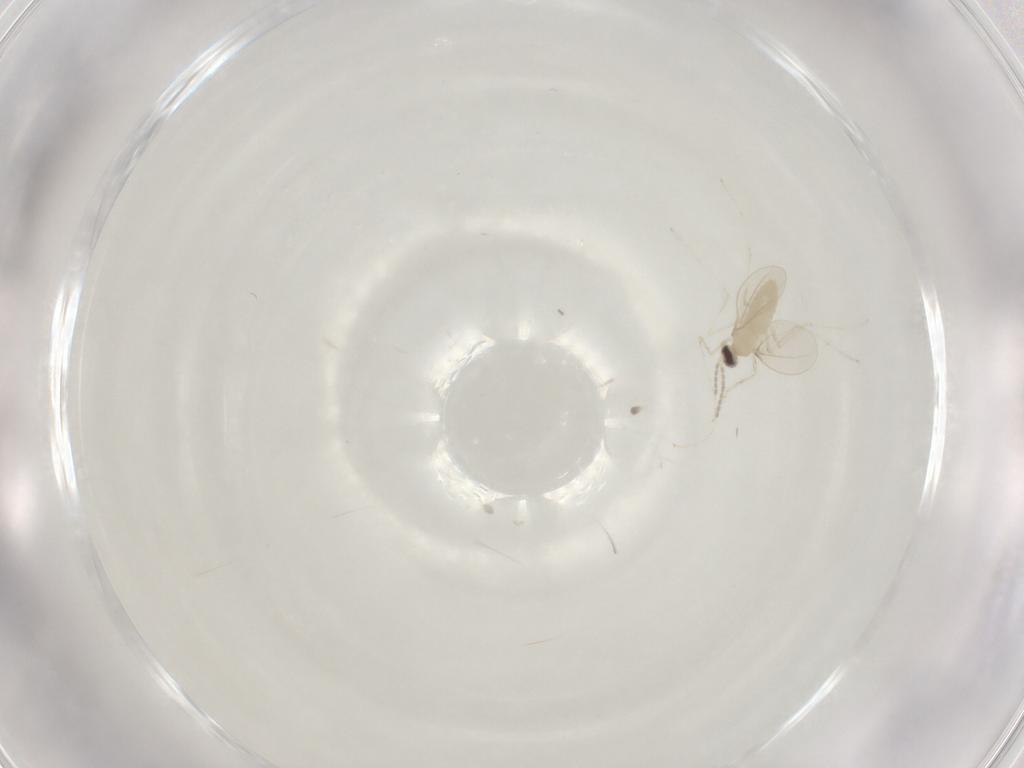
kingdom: Animalia
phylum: Arthropoda
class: Insecta
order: Diptera
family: Cecidomyiidae
